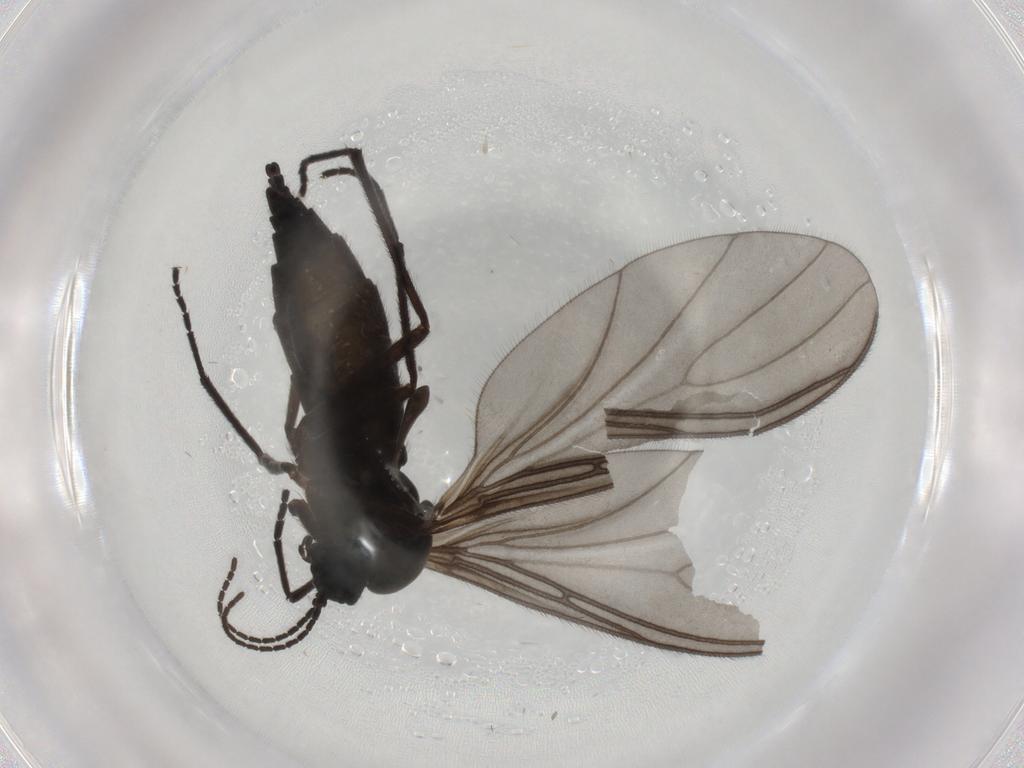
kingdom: Animalia
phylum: Arthropoda
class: Insecta
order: Diptera
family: Sciaridae
